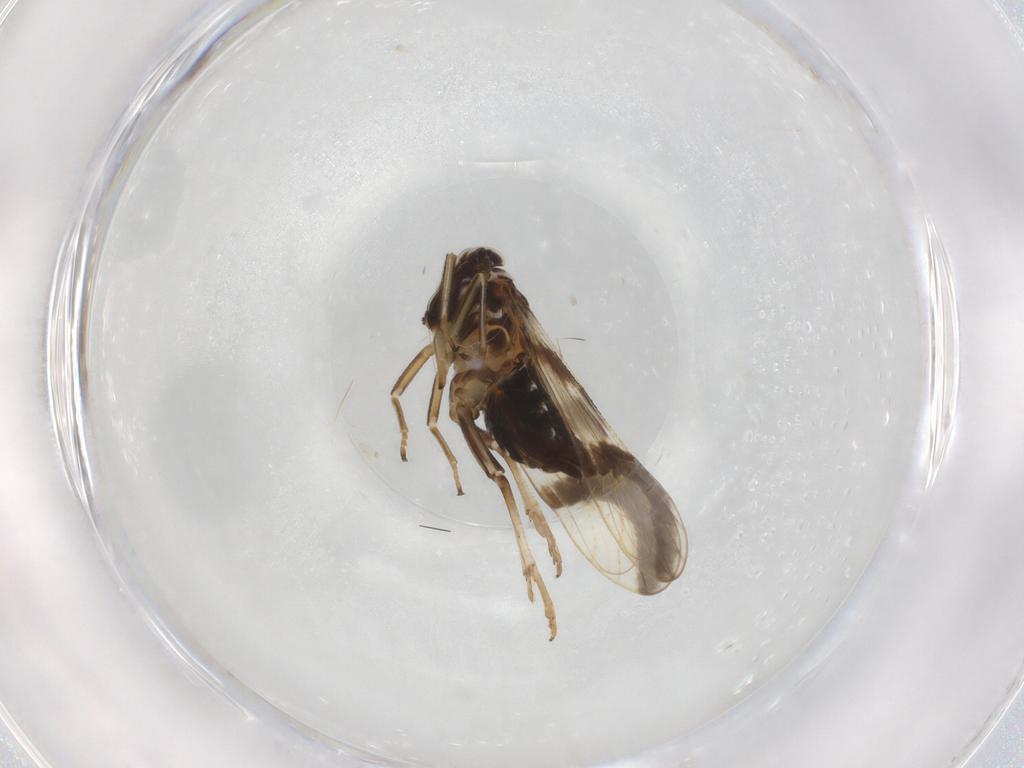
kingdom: Animalia
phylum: Arthropoda
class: Insecta
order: Hemiptera
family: Delphacidae
